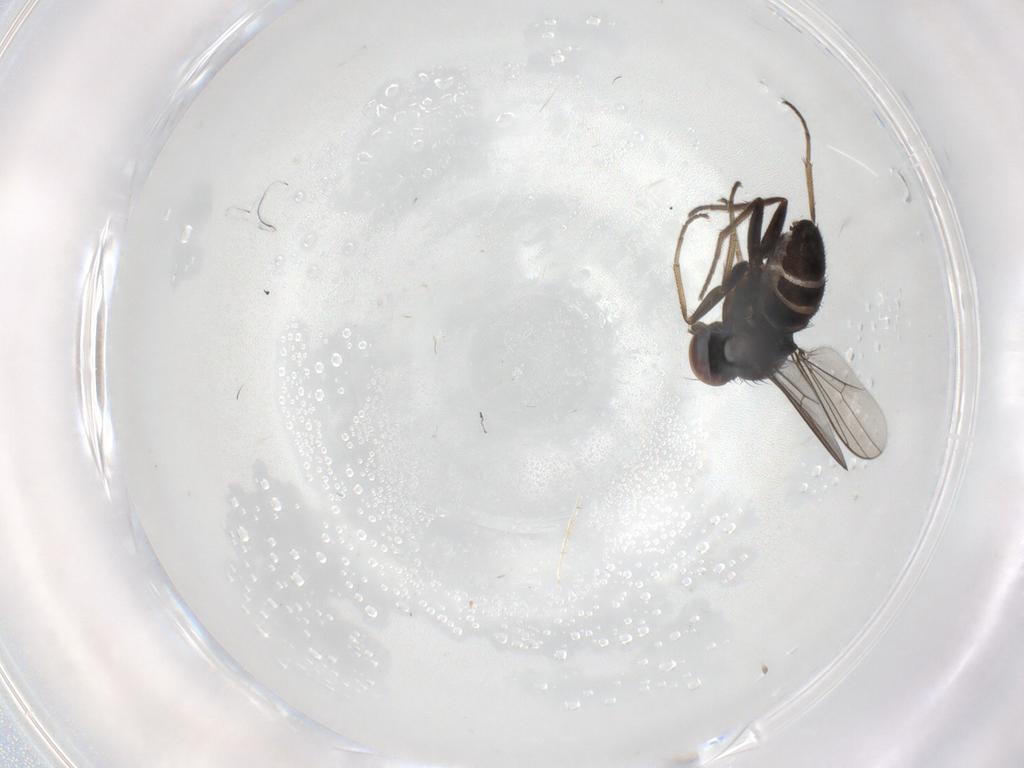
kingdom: Animalia
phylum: Arthropoda
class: Insecta
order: Diptera
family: Dolichopodidae
